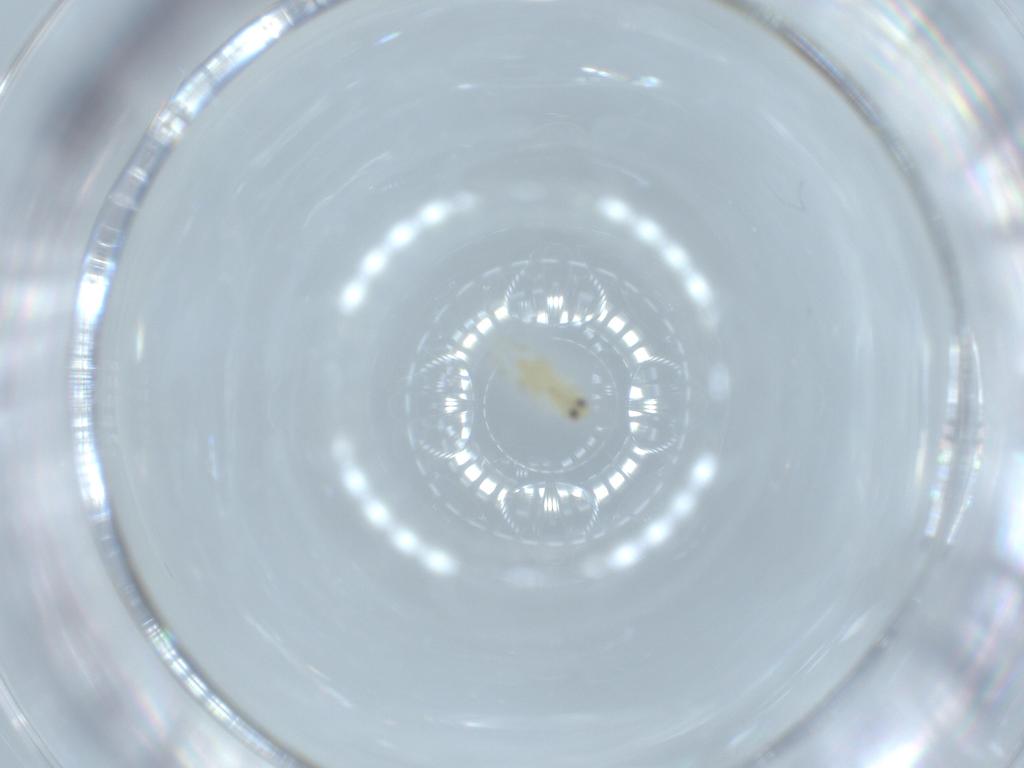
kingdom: Animalia
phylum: Arthropoda
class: Insecta
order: Hemiptera
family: Aleyrodidae
